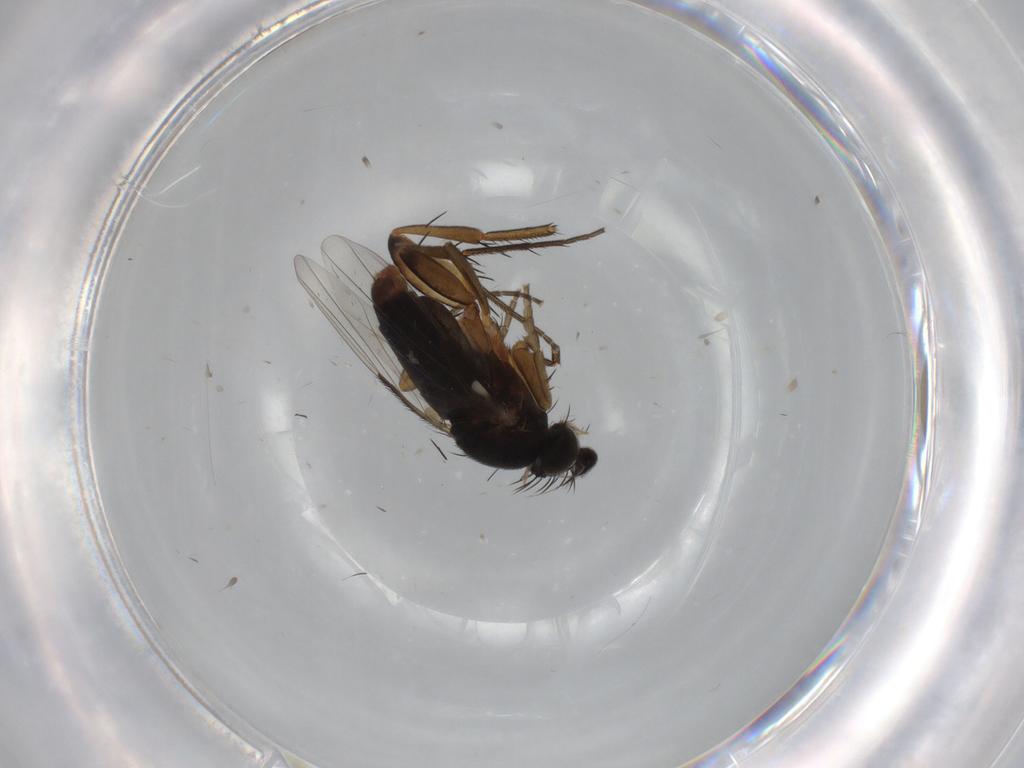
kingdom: Animalia
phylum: Arthropoda
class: Insecta
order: Diptera
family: Phoridae
